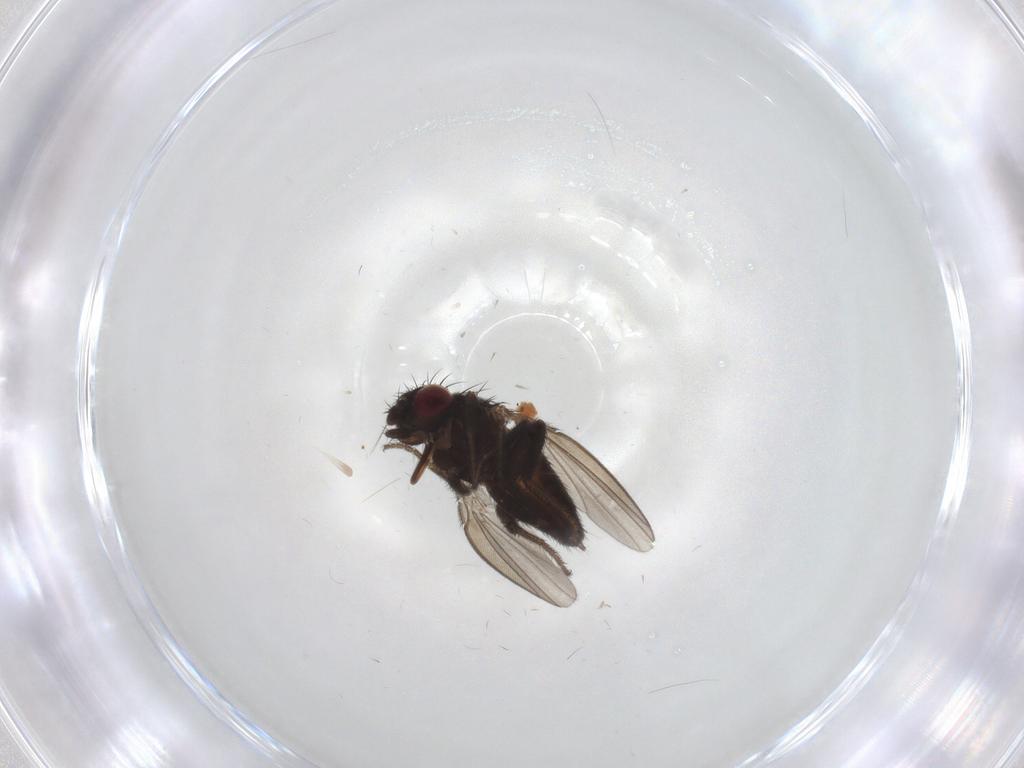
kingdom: Animalia
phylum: Arthropoda
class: Insecta
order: Diptera
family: Milichiidae
